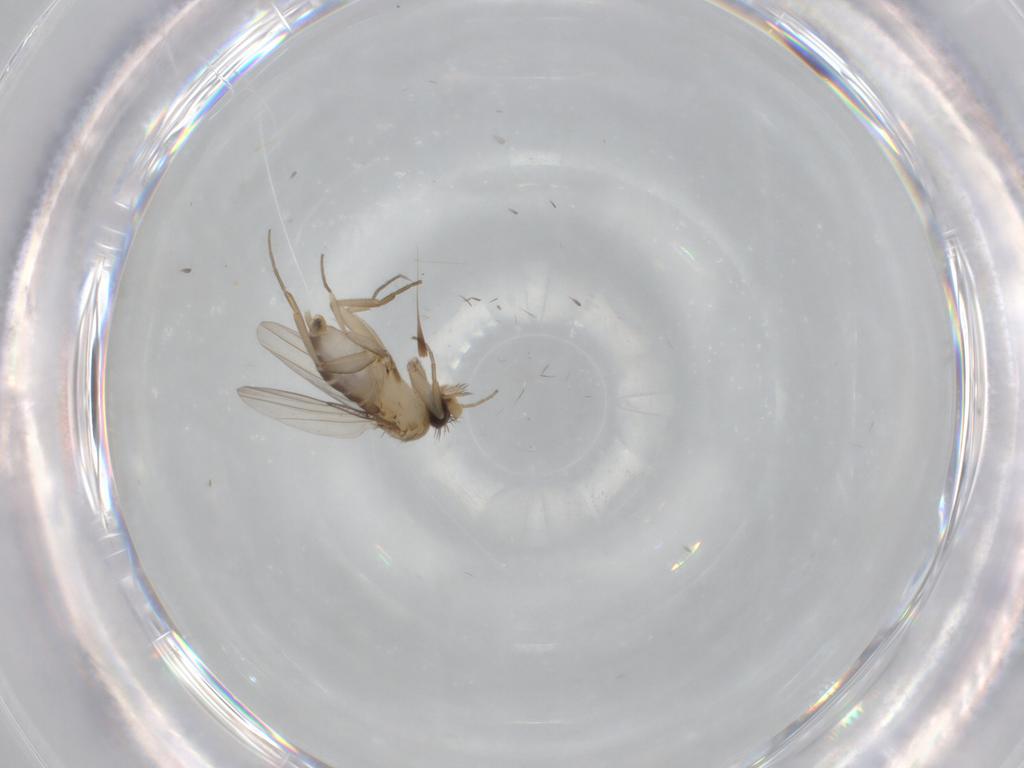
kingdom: Animalia
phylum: Arthropoda
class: Insecta
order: Diptera
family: Phoridae
